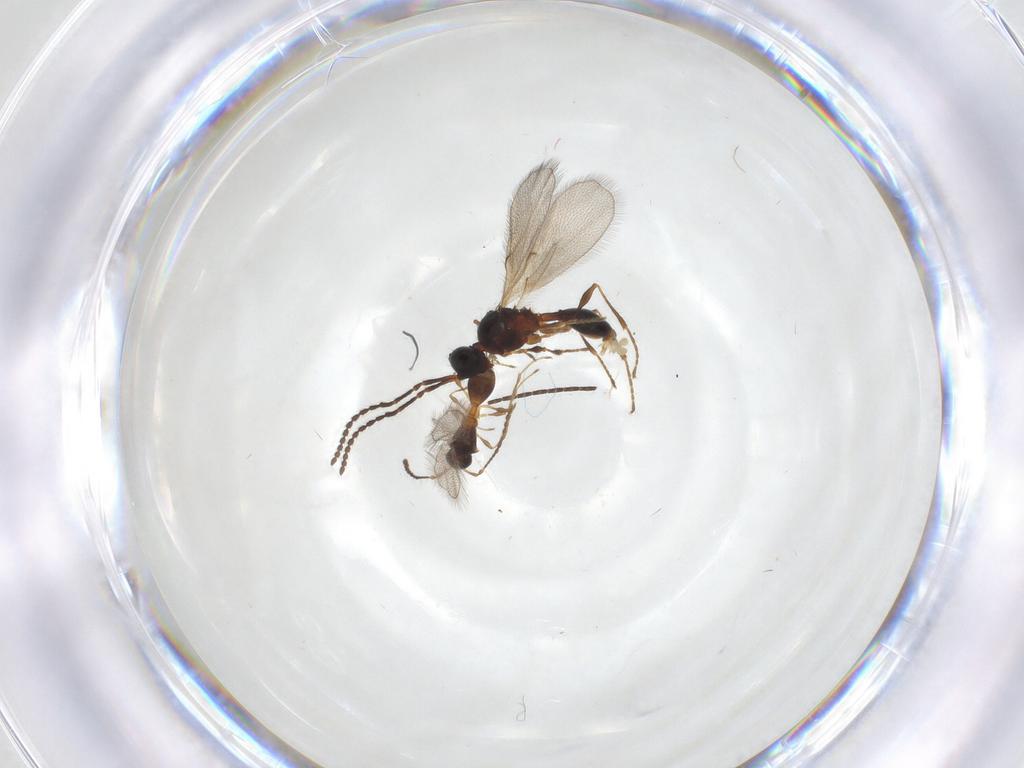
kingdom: Animalia
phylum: Arthropoda
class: Insecta
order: Hymenoptera
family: Diapriidae
